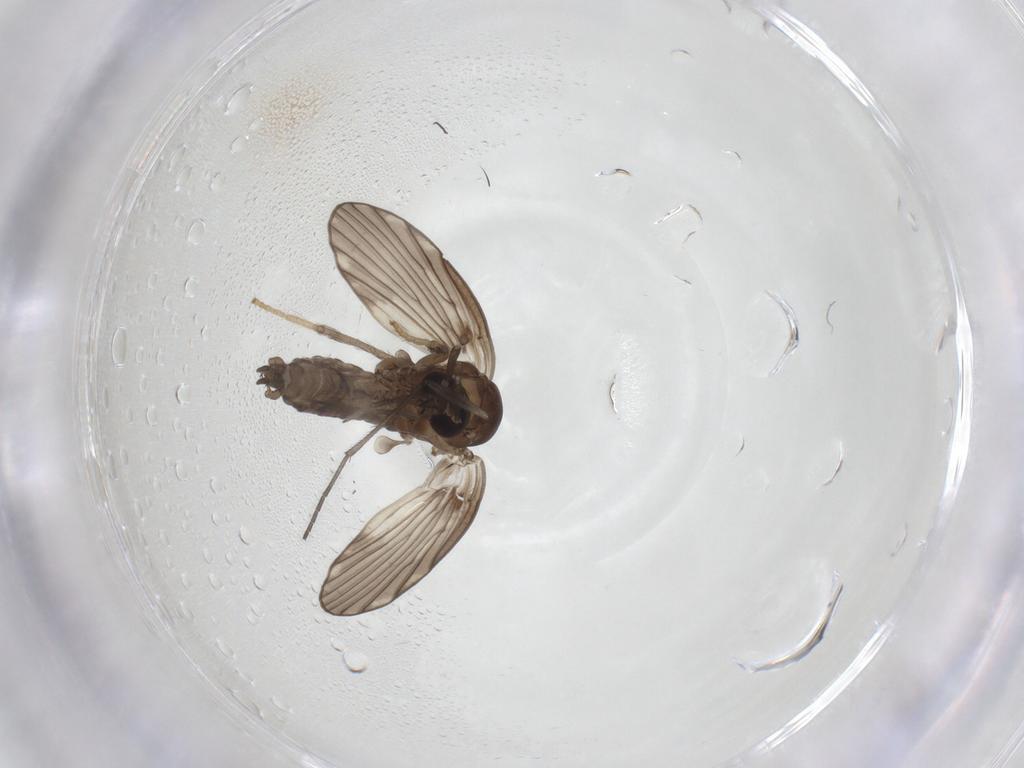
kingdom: Animalia
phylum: Arthropoda
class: Insecta
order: Diptera
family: Psychodidae
